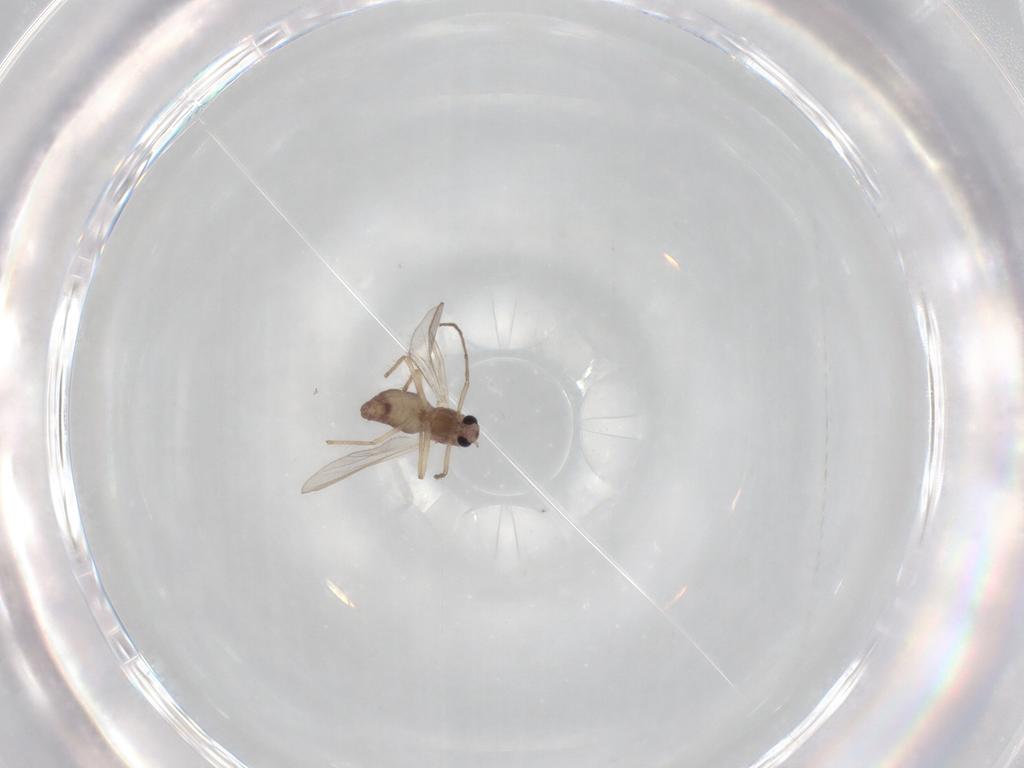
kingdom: Animalia
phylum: Arthropoda
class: Insecta
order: Diptera
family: Chironomidae
